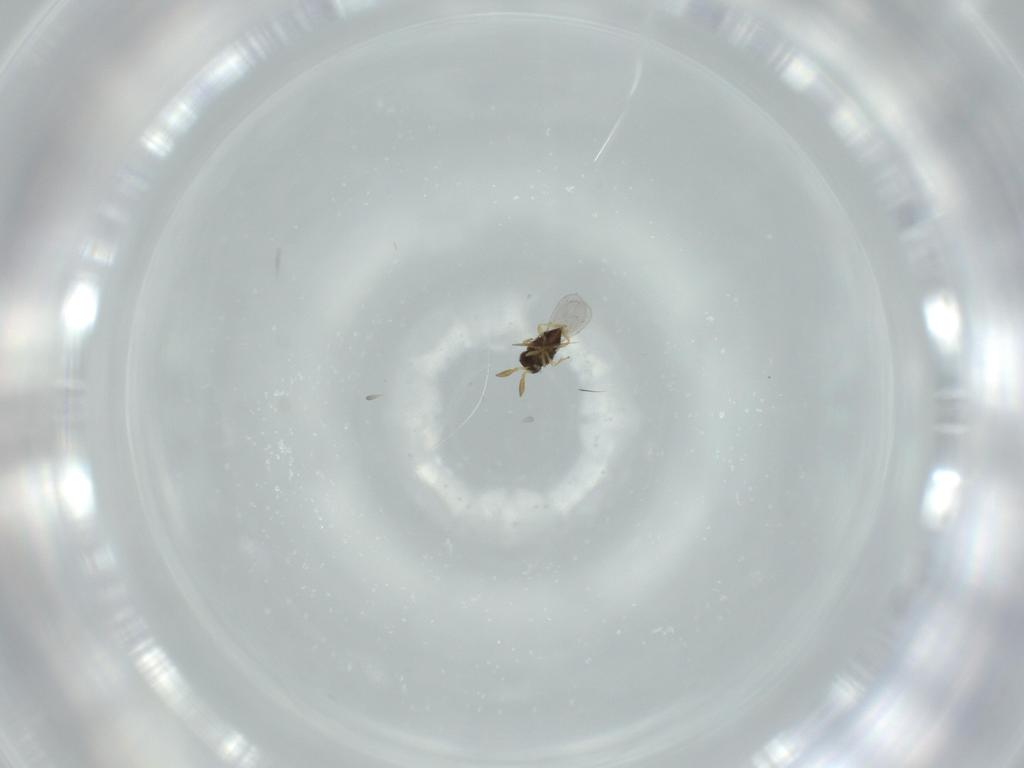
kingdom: Animalia
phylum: Arthropoda
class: Insecta
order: Hymenoptera
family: Encyrtidae
